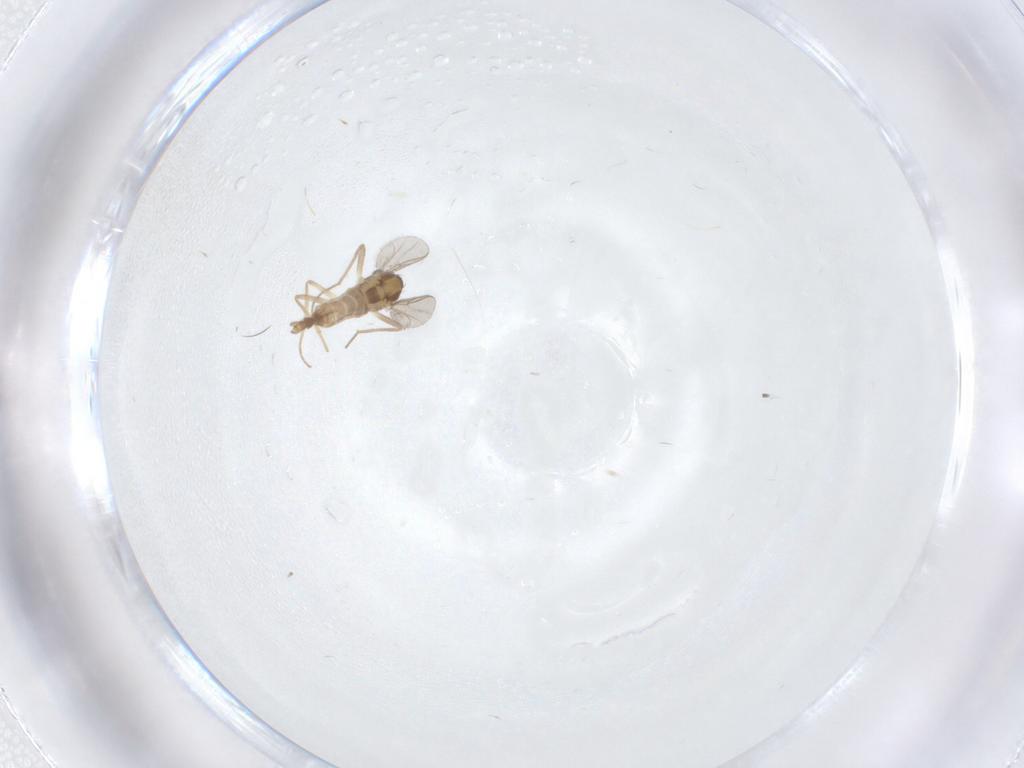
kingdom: Animalia
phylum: Arthropoda
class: Insecta
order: Diptera
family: Chironomidae
